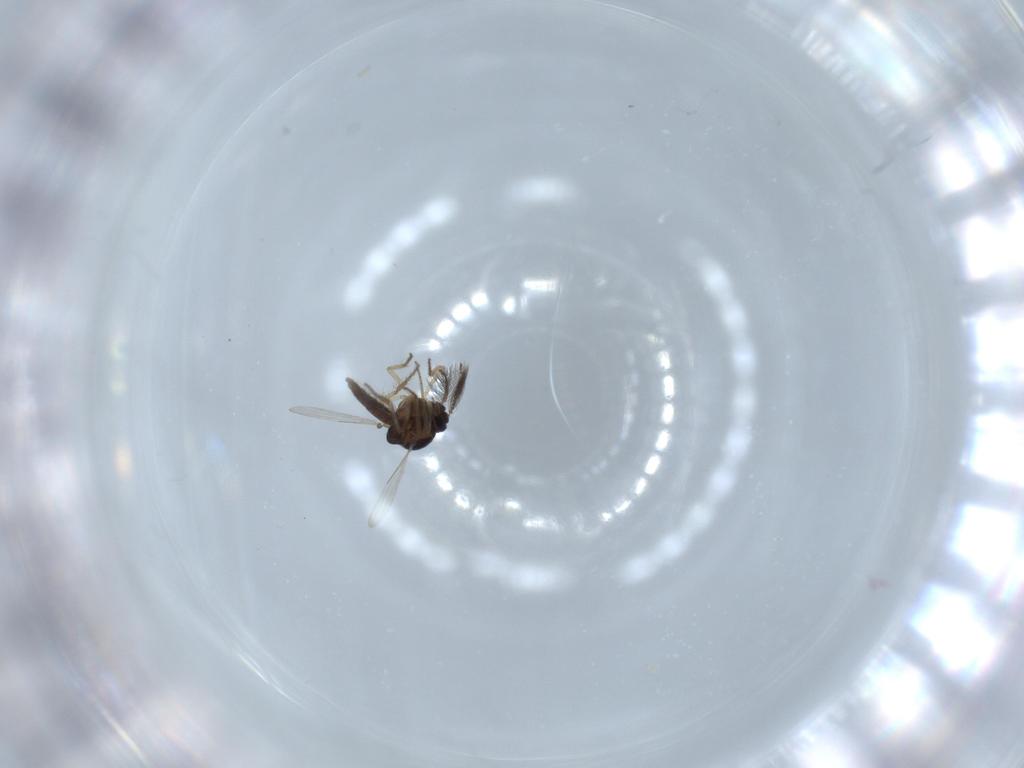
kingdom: Animalia
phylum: Arthropoda
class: Insecta
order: Diptera
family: Ceratopogonidae
